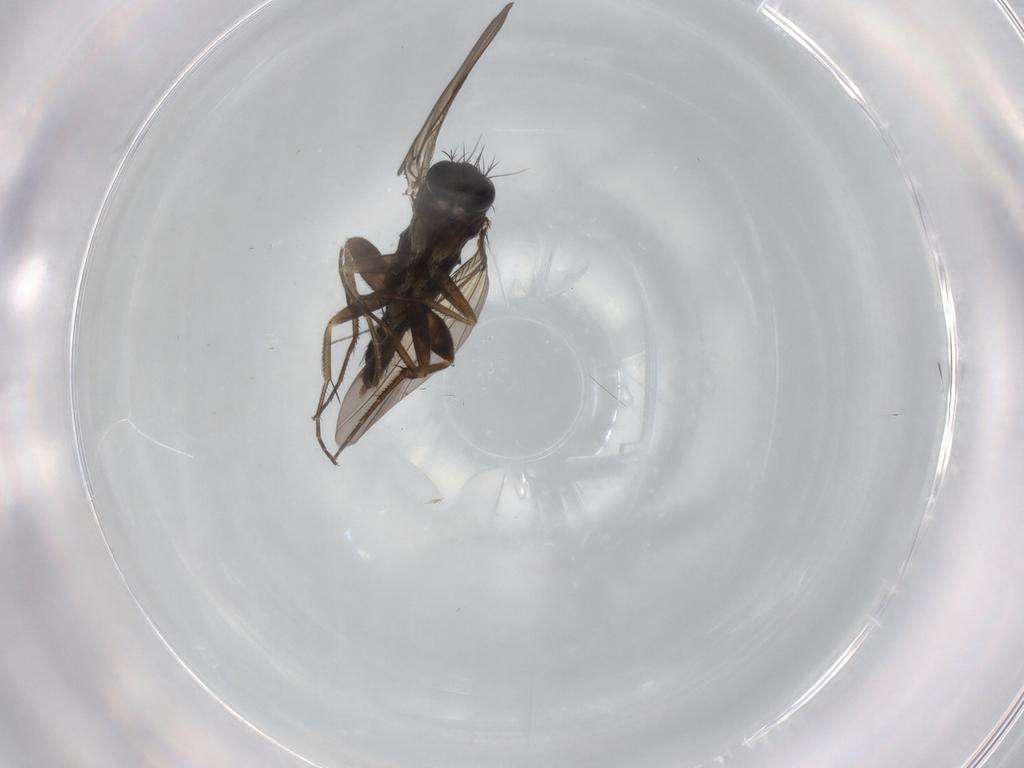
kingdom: Animalia
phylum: Arthropoda
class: Insecta
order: Diptera
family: Phoridae
